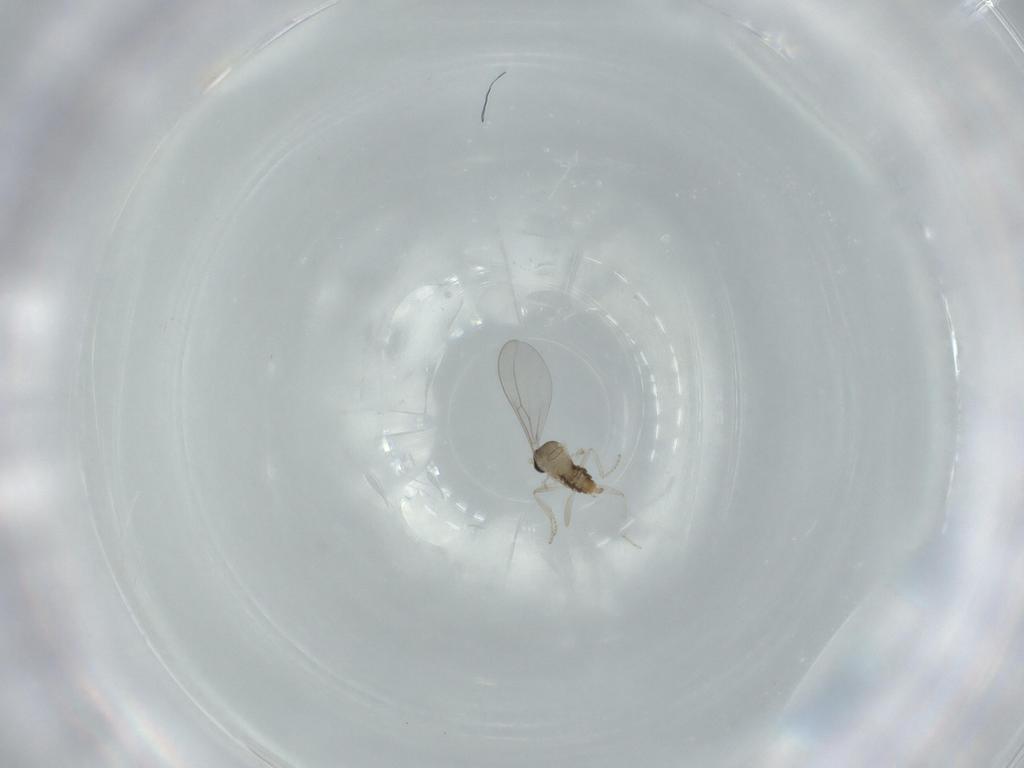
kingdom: Animalia
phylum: Arthropoda
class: Insecta
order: Diptera
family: Cecidomyiidae
